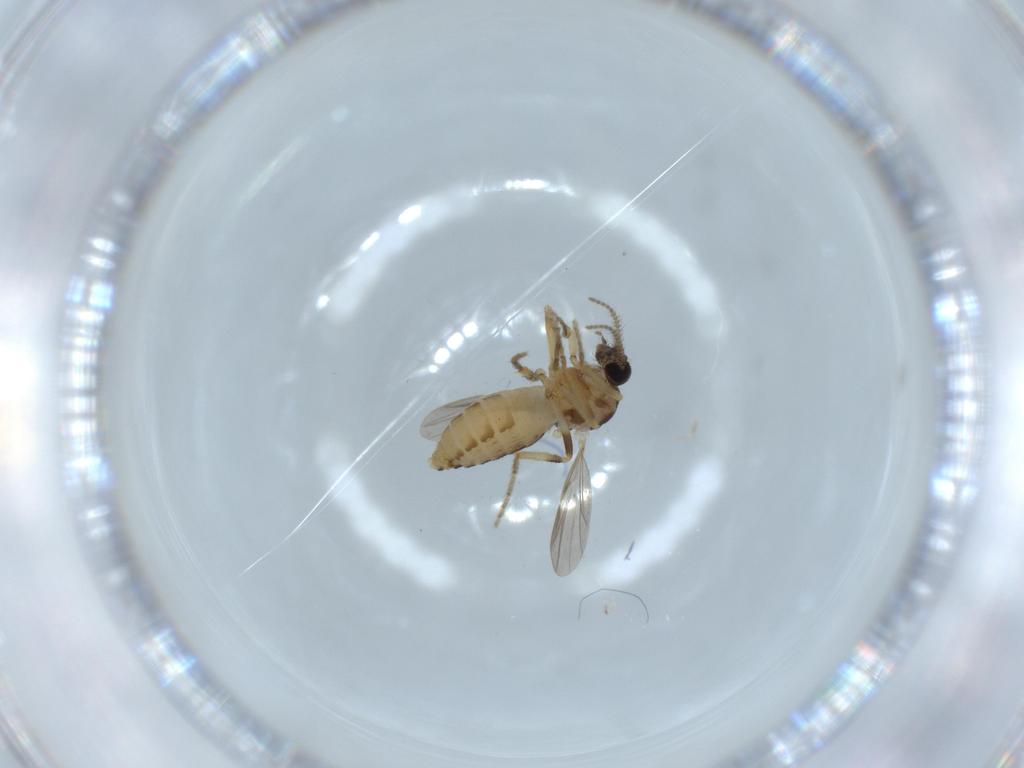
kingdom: Animalia
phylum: Arthropoda
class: Insecta
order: Diptera
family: Ceratopogonidae
